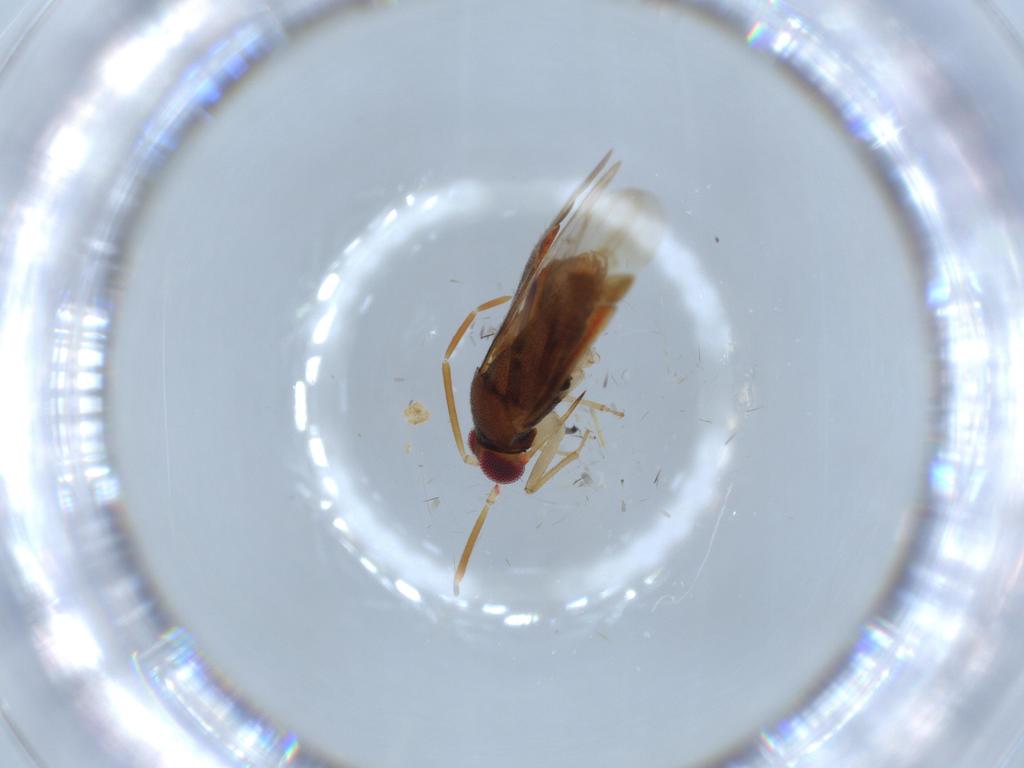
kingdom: Animalia
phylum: Arthropoda
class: Insecta
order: Hemiptera
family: Miridae
